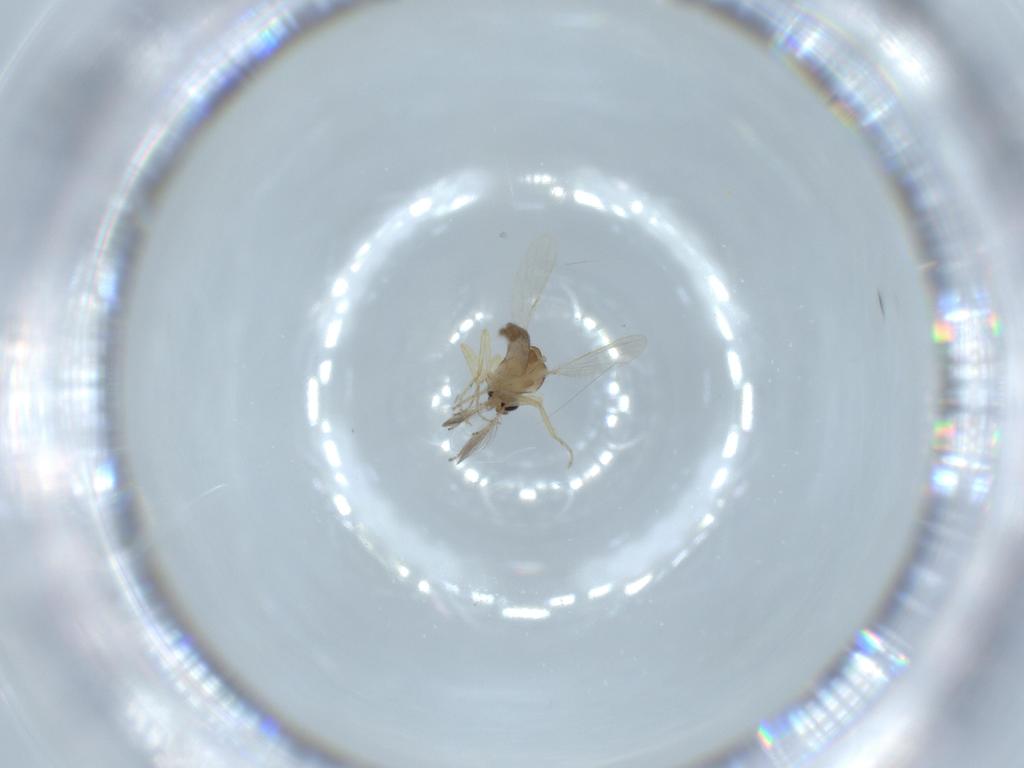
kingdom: Animalia
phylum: Arthropoda
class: Insecta
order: Diptera
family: Ceratopogonidae
